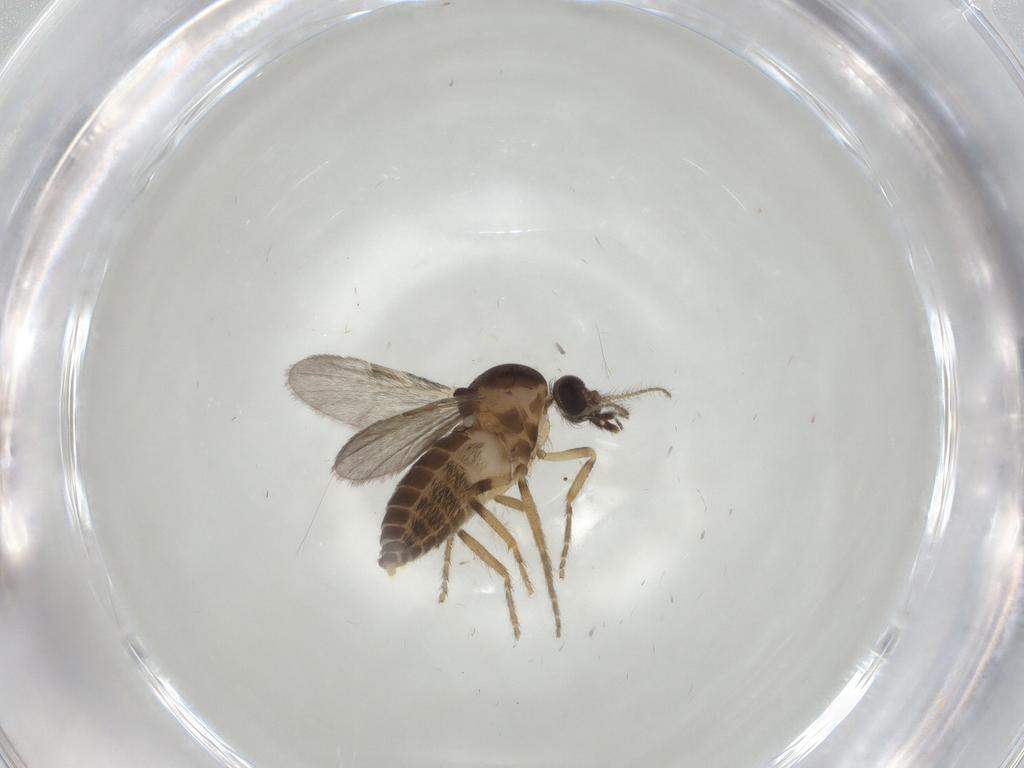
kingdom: Animalia
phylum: Arthropoda
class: Insecta
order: Diptera
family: Ceratopogonidae
